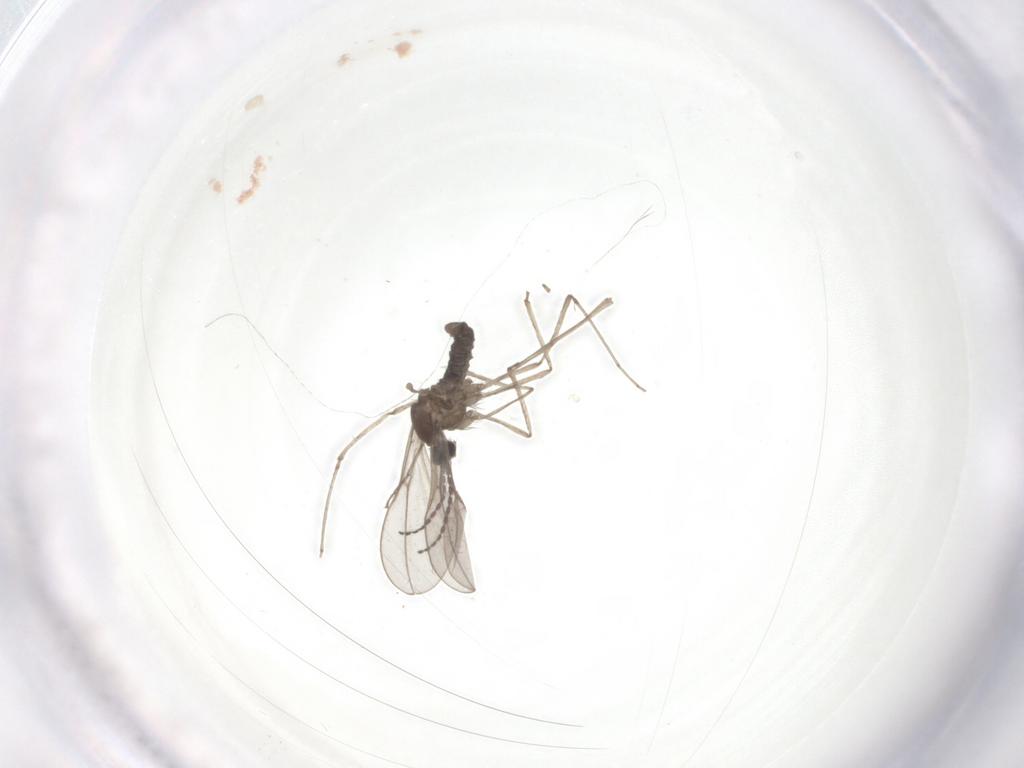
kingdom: Animalia
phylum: Arthropoda
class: Insecta
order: Diptera
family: Cecidomyiidae
